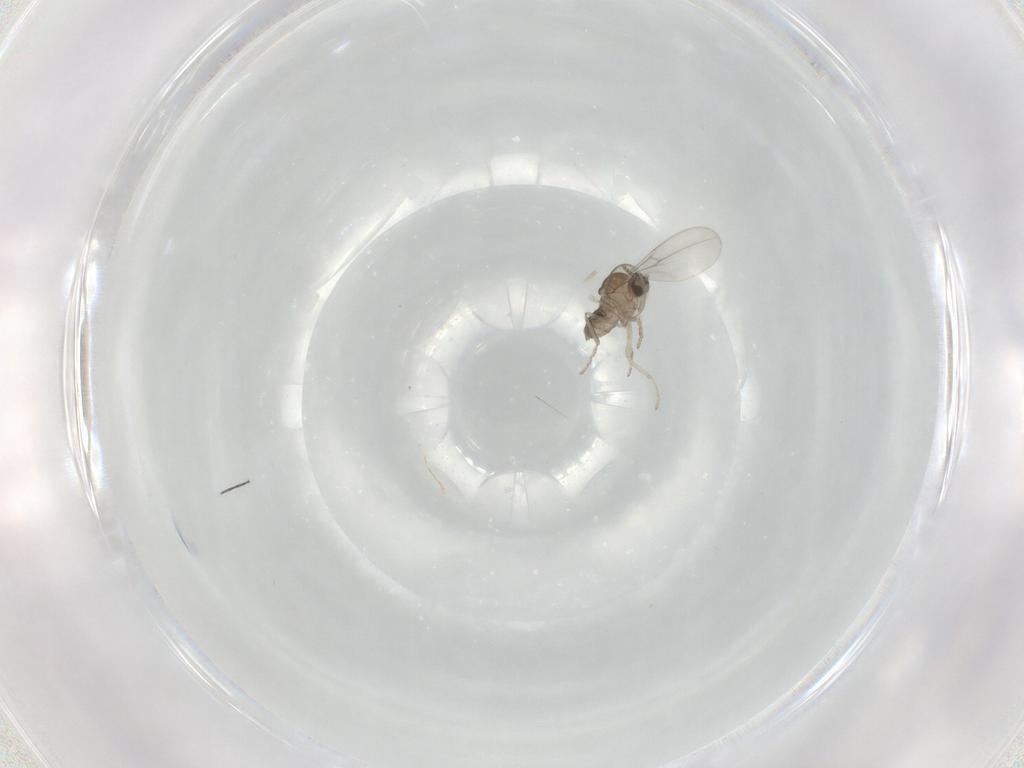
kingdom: Animalia
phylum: Arthropoda
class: Insecta
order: Diptera
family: Cecidomyiidae
